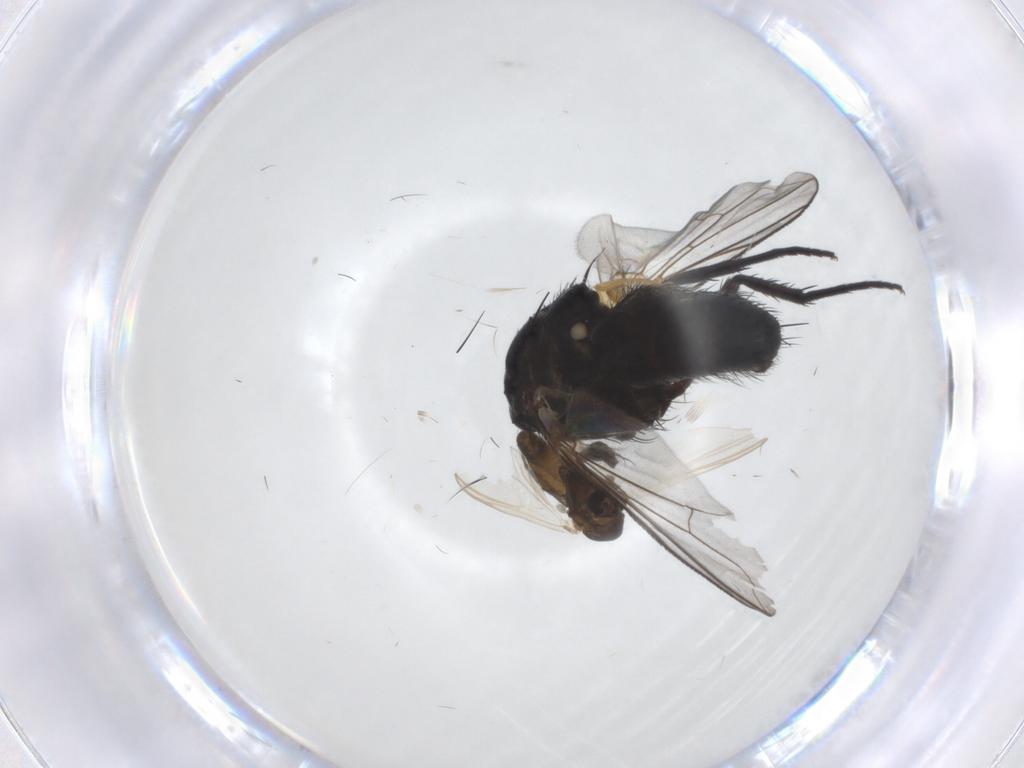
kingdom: Animalia
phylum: Arthropoda
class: Insecta
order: Diptera
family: Tachinidae
